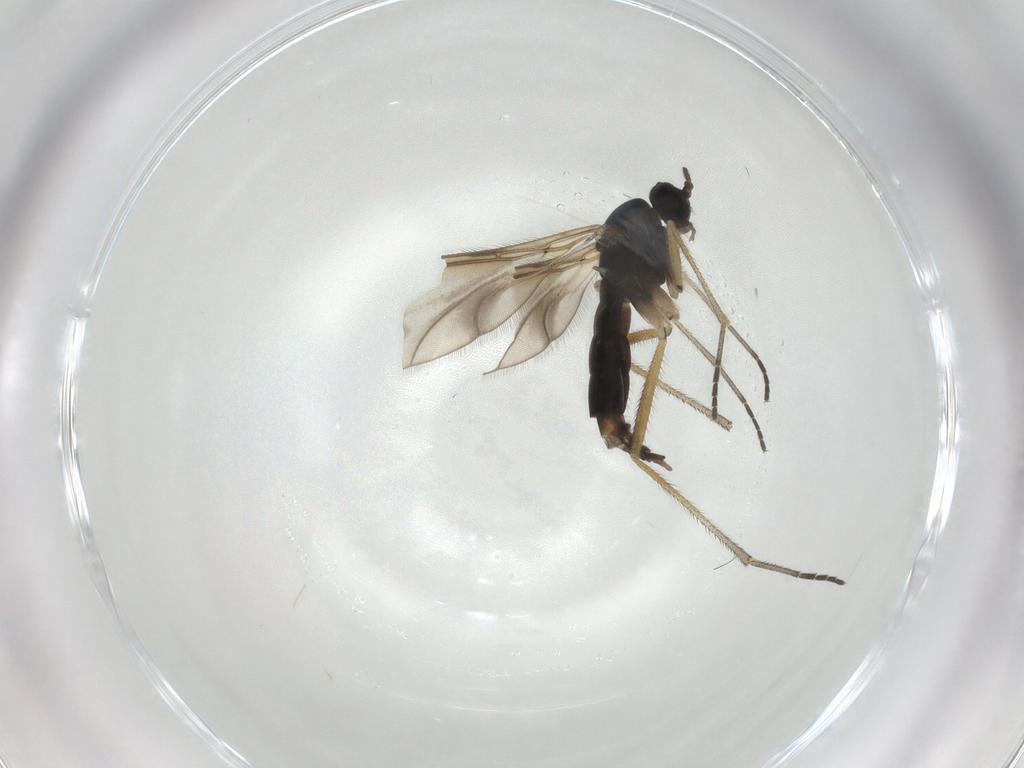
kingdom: Animalia
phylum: Arthropoda
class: Insecta
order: Diptera
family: Sciaridae
